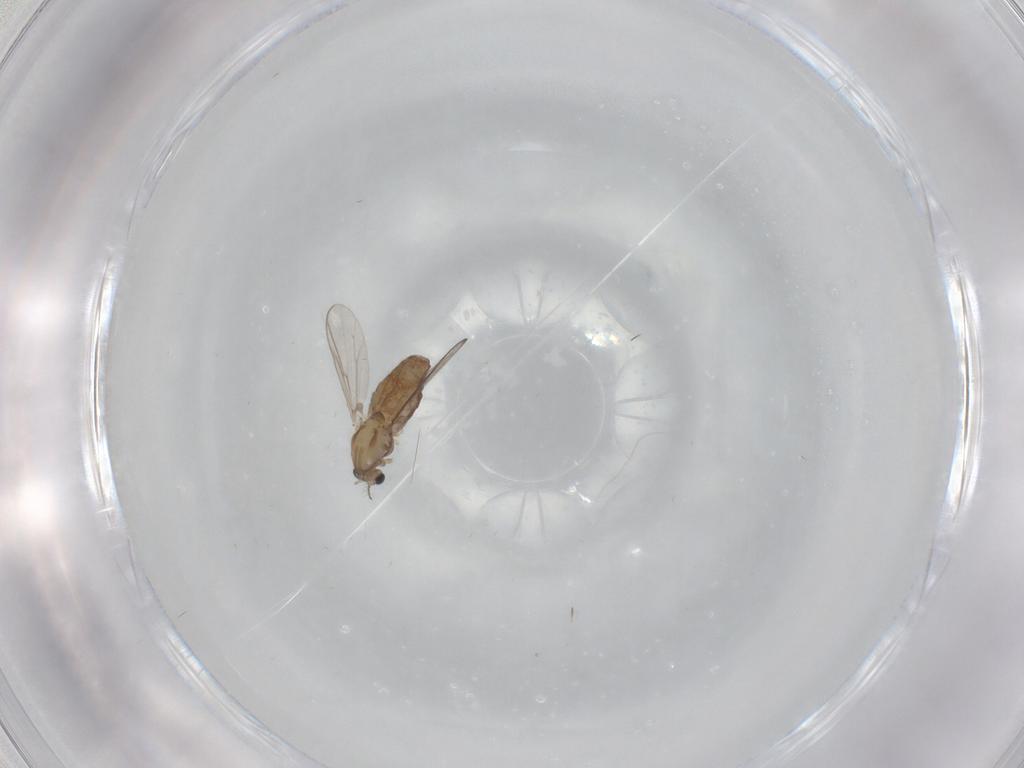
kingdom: Animalia
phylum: Arthropoda
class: Insecta
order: Diptera
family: Chironomidae
